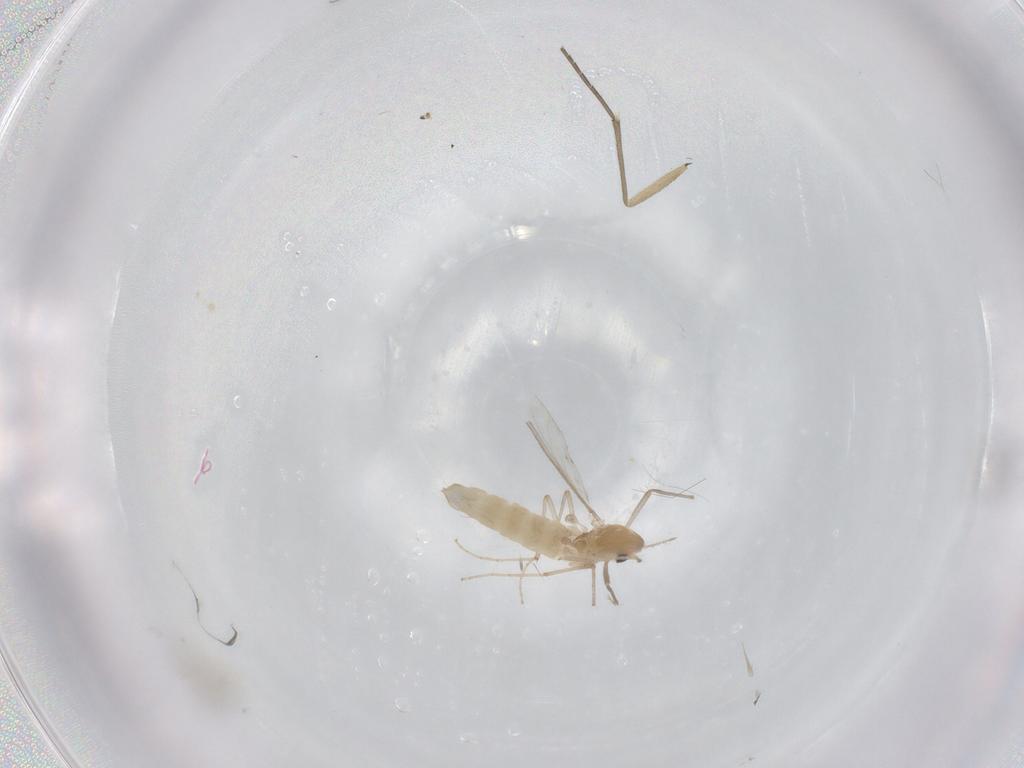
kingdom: Animalia
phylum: Arthropoda
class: Insecta
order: Diptera
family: Chironomidae
